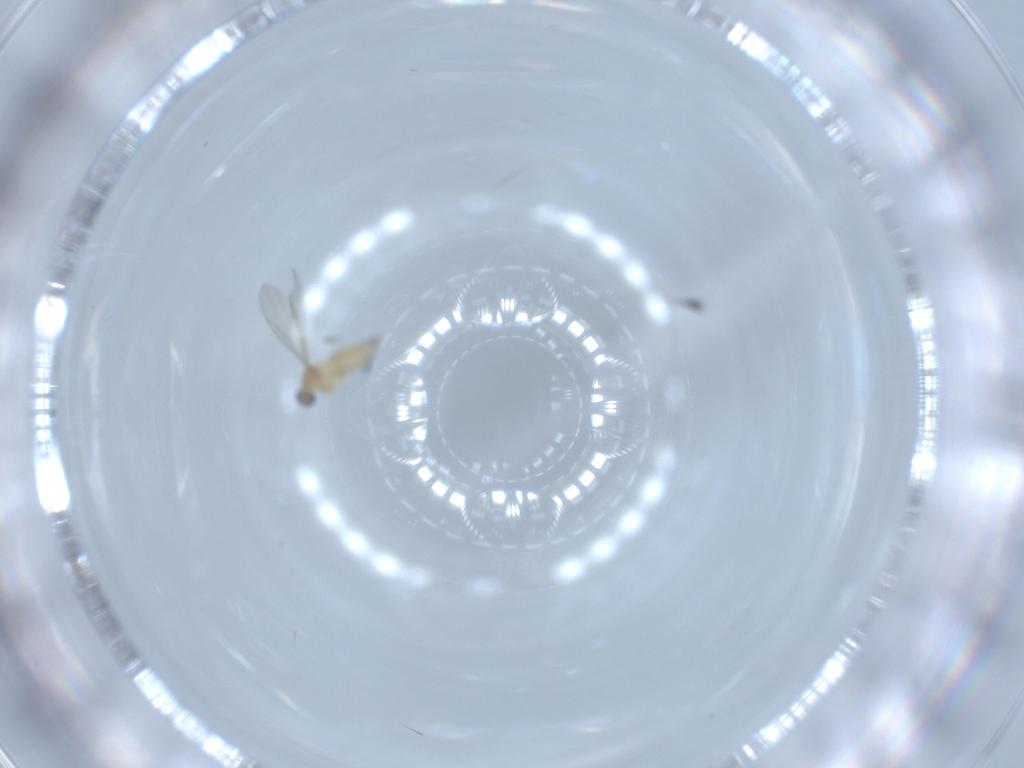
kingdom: Animalia
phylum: Arthropoda
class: Insecta
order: Diptera
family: Cecidomyiidae
